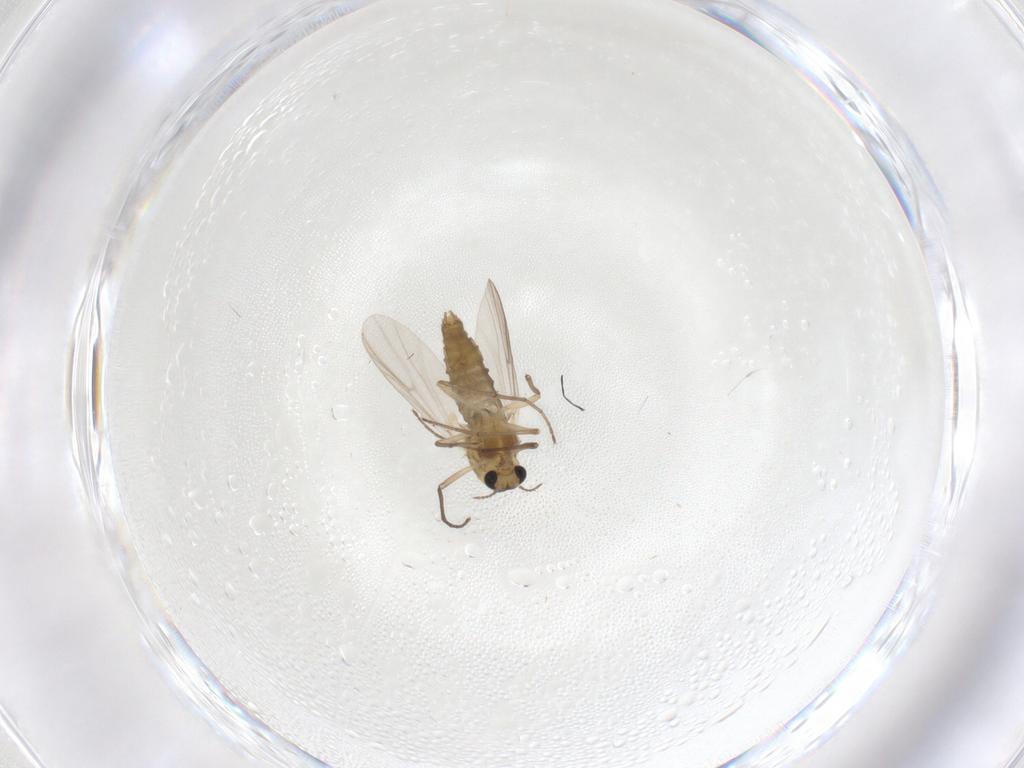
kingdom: Animalia
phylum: Arthropoda
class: Insecta
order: Diptera
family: Chironomidae
